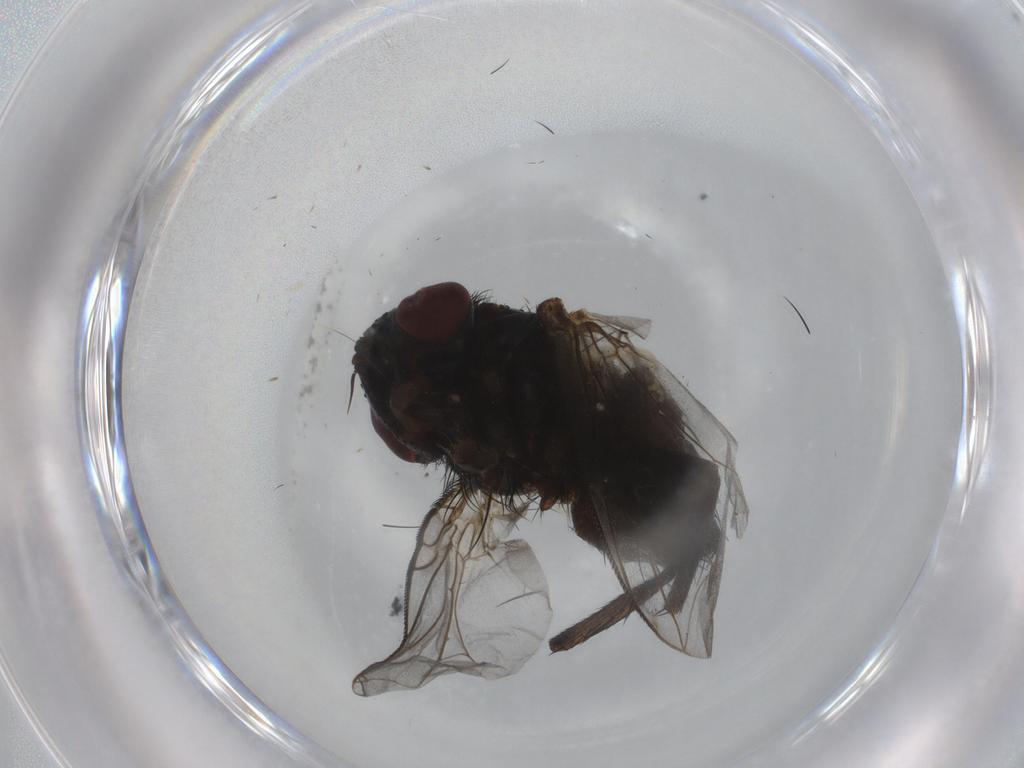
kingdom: Animalia
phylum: Arthropoda
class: Insecta
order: Diptera
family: Tachinidae
